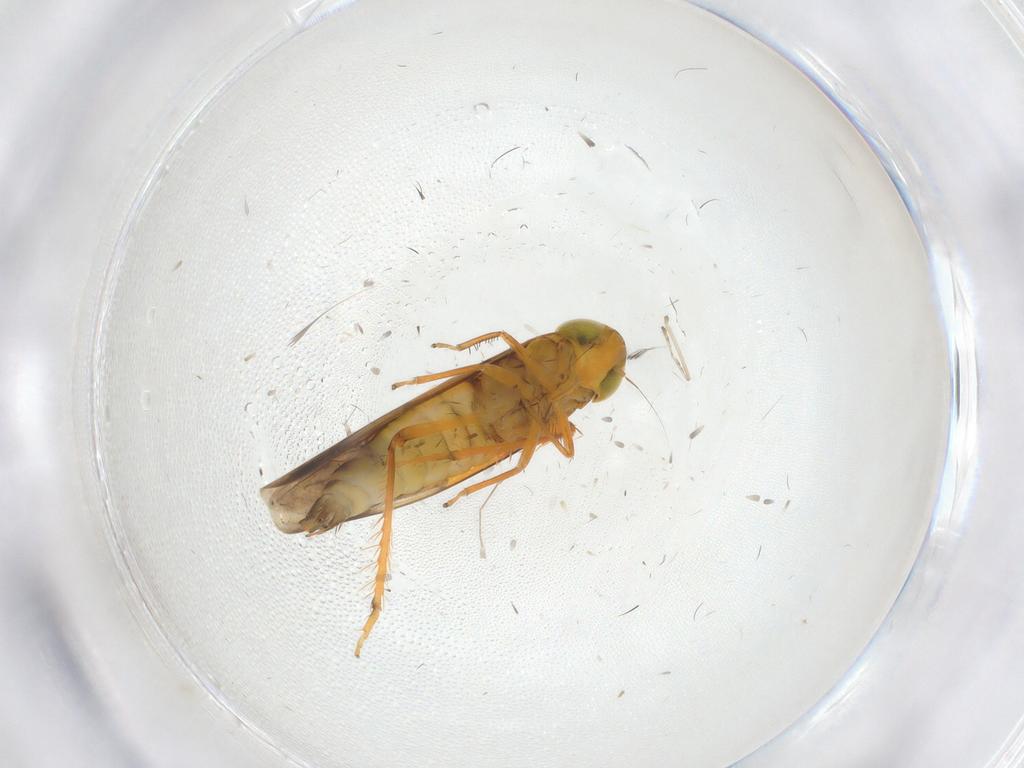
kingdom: Animalia
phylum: Arthropoda
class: Insecta
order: Hemiptera
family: Cicadellidae
